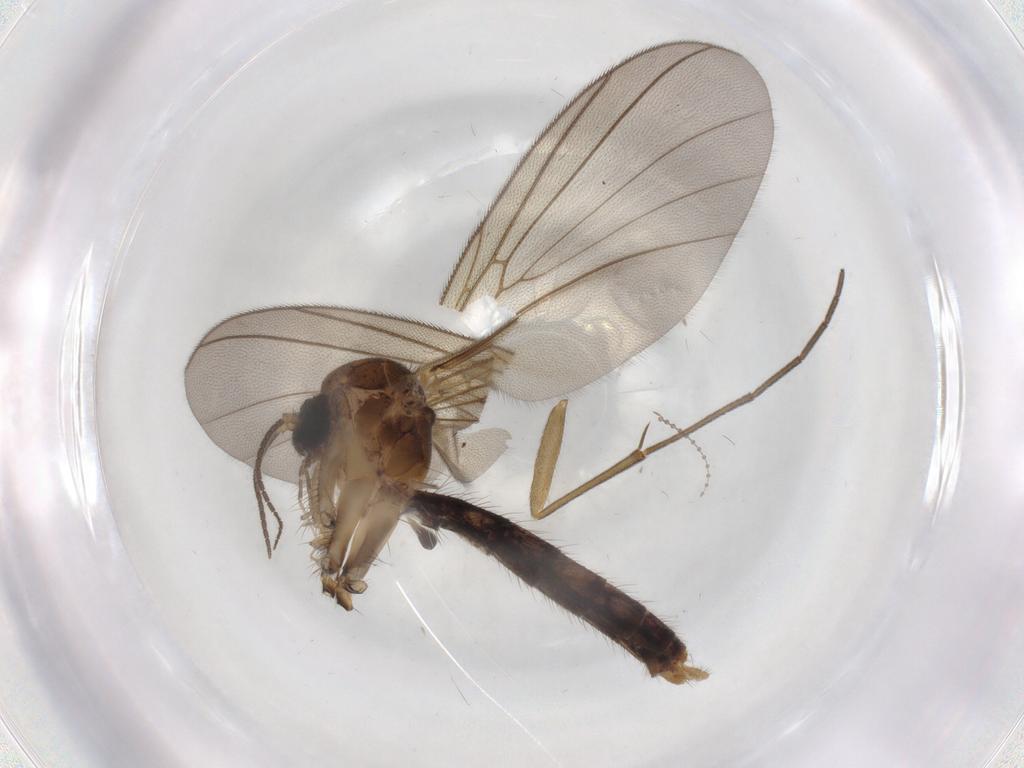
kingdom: Animalia
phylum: Arthropoda
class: Insecta
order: Diptera
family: Mycetophilidae
